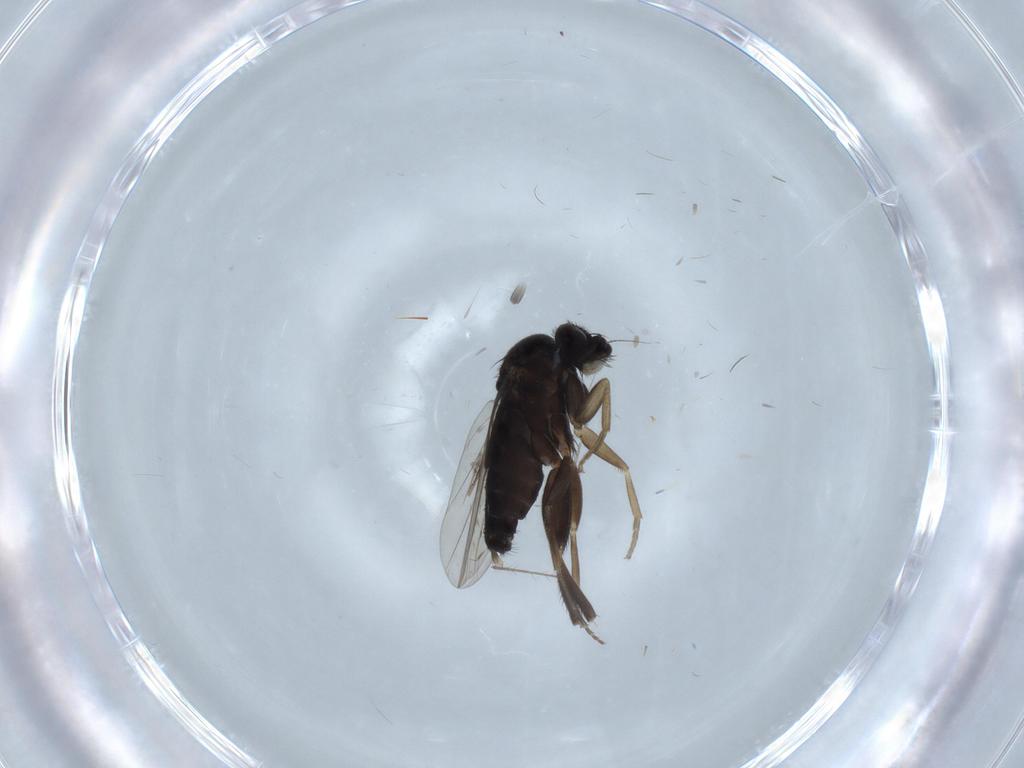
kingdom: Animalia
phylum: Arthropoda
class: Insecta
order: Diptera
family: Phoridae
